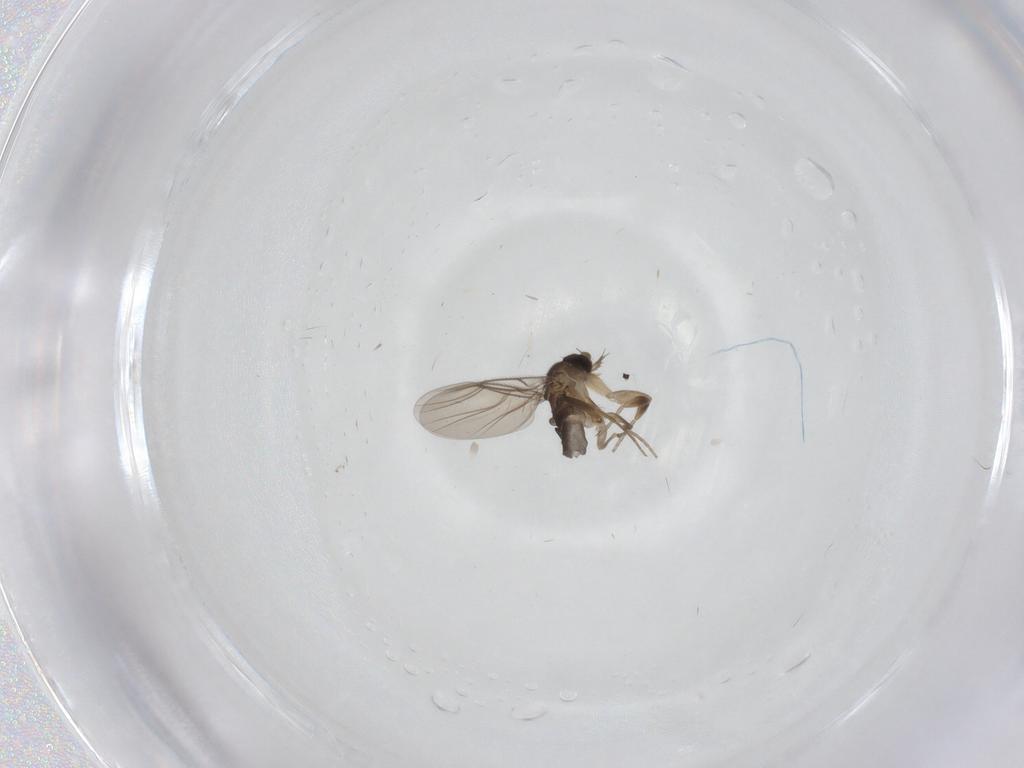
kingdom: Animalia
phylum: Arthropoda
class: Insecta
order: Diptera
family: Phoridae
